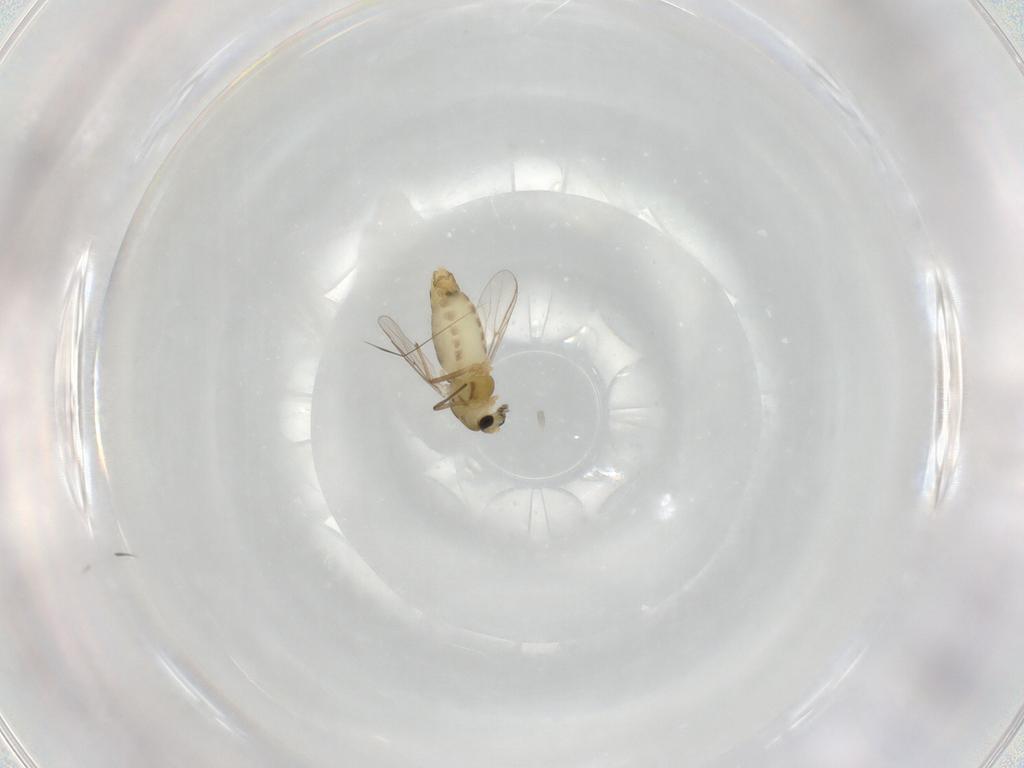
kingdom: Animalia
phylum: Arthropoda
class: Insecta
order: Diptera
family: Chironomidae
